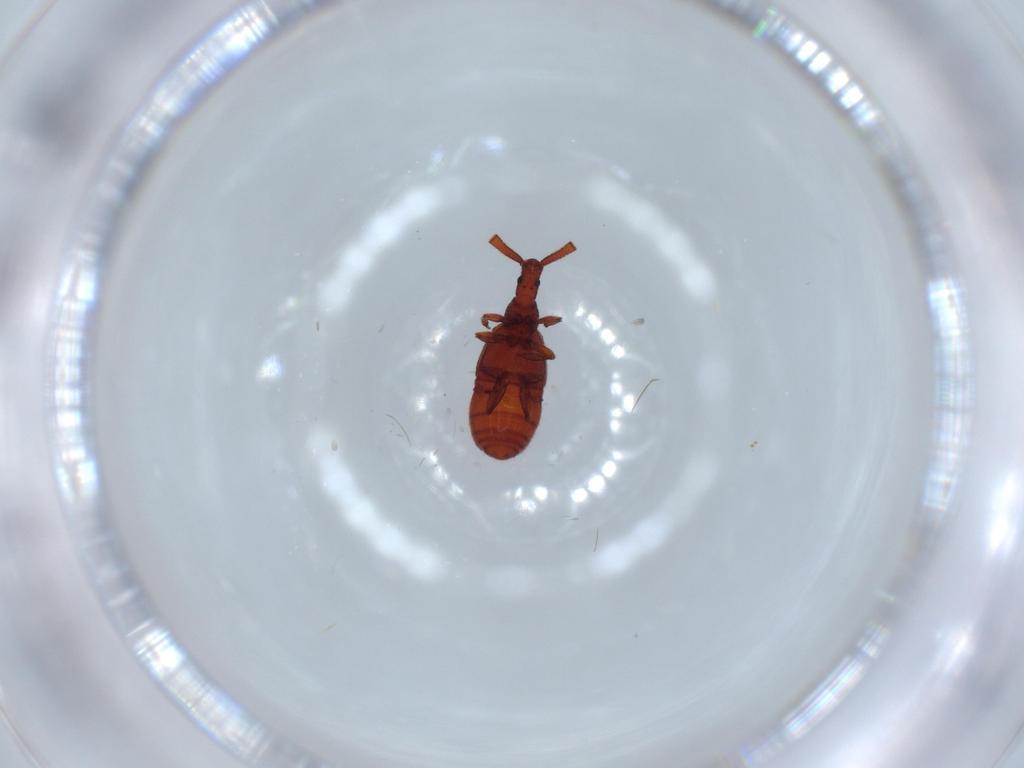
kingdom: Animalia
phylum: Arthropoda
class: Insecta
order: Coleoptera
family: Staphylinidae
